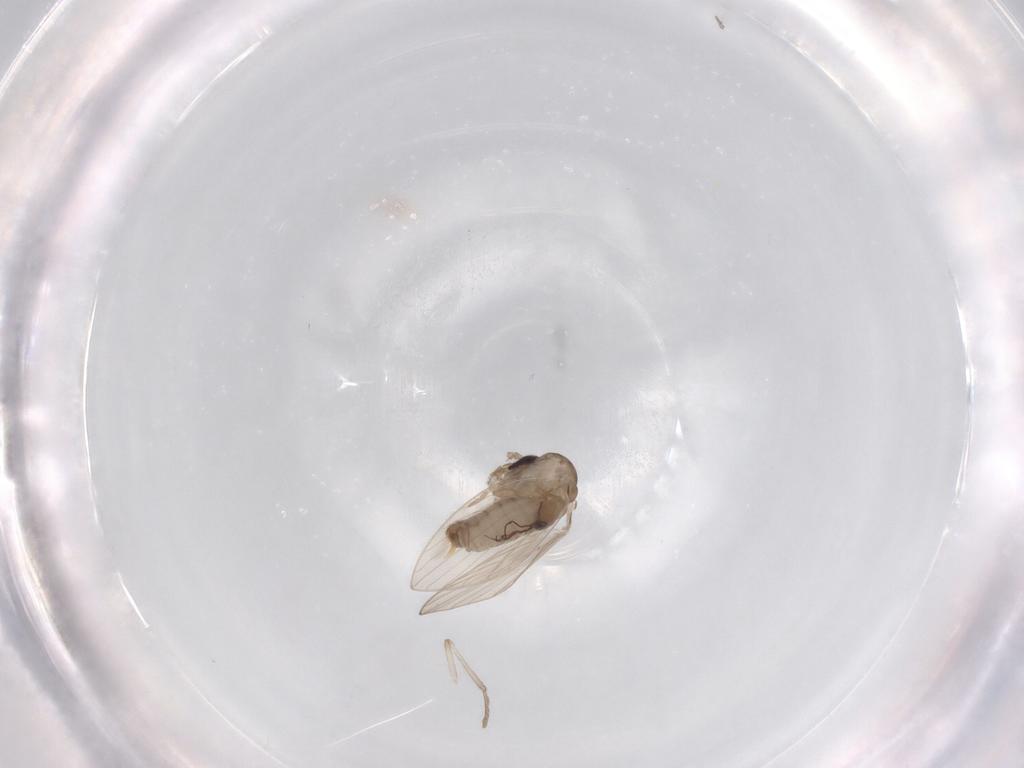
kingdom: Animalia
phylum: Arthropoda
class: Insecta
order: Diptera
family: Psychodidae
